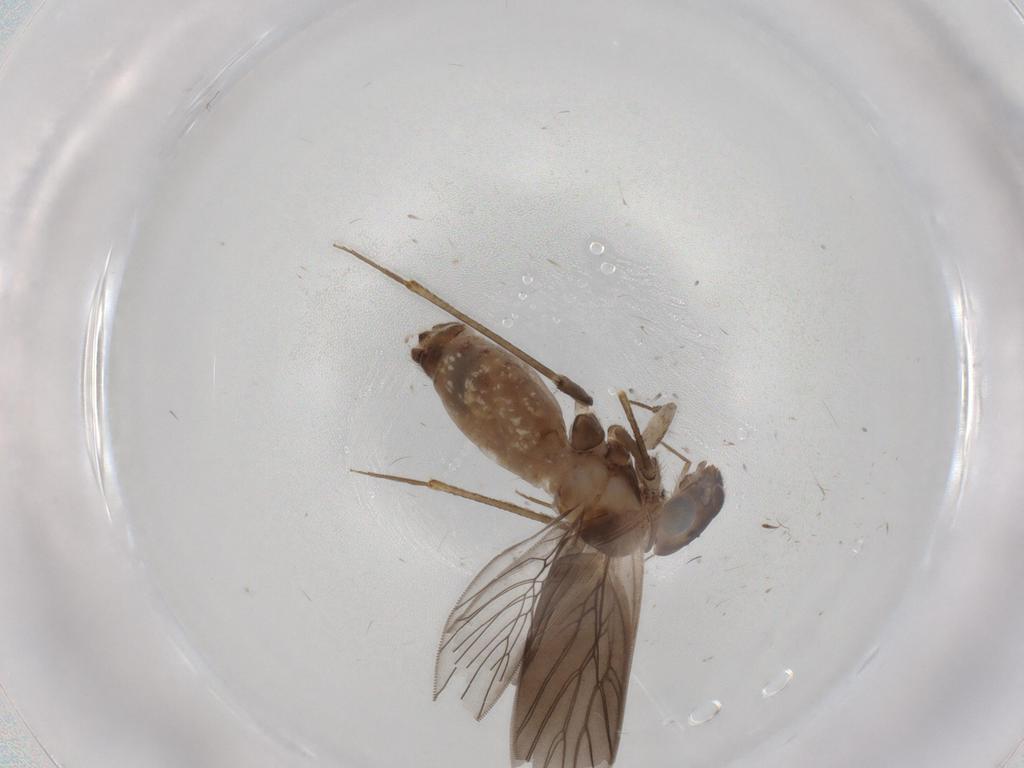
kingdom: Animalia
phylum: Arthropoda
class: Insecta
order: Psocodea
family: Lepidopsocidae
